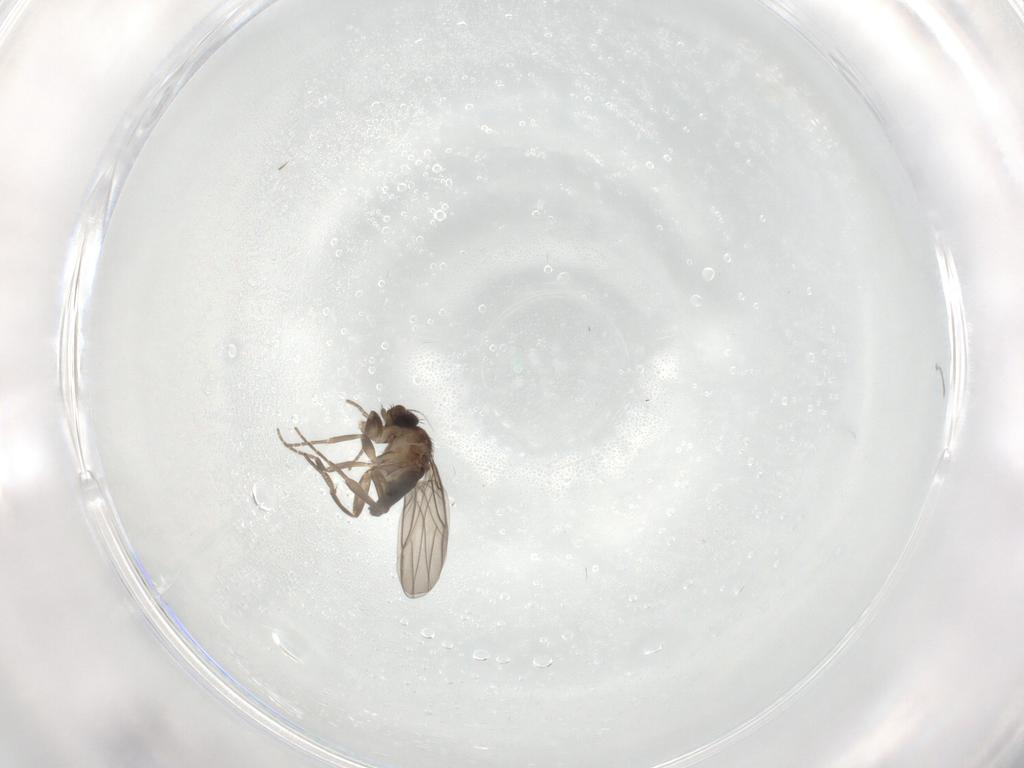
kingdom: Animalia
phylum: Arthropoda
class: Insecta
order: Diptera
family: Phoridae
